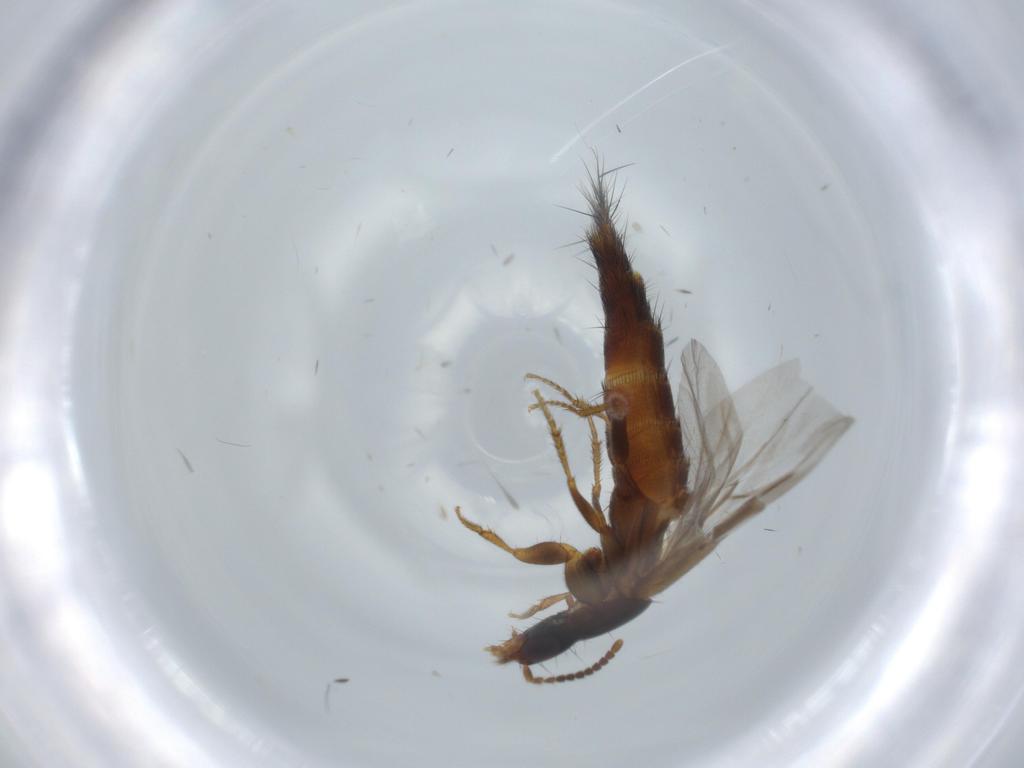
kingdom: Animalia
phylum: Arthropoda
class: Insecta
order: Coleoptera
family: Staphylinidae
